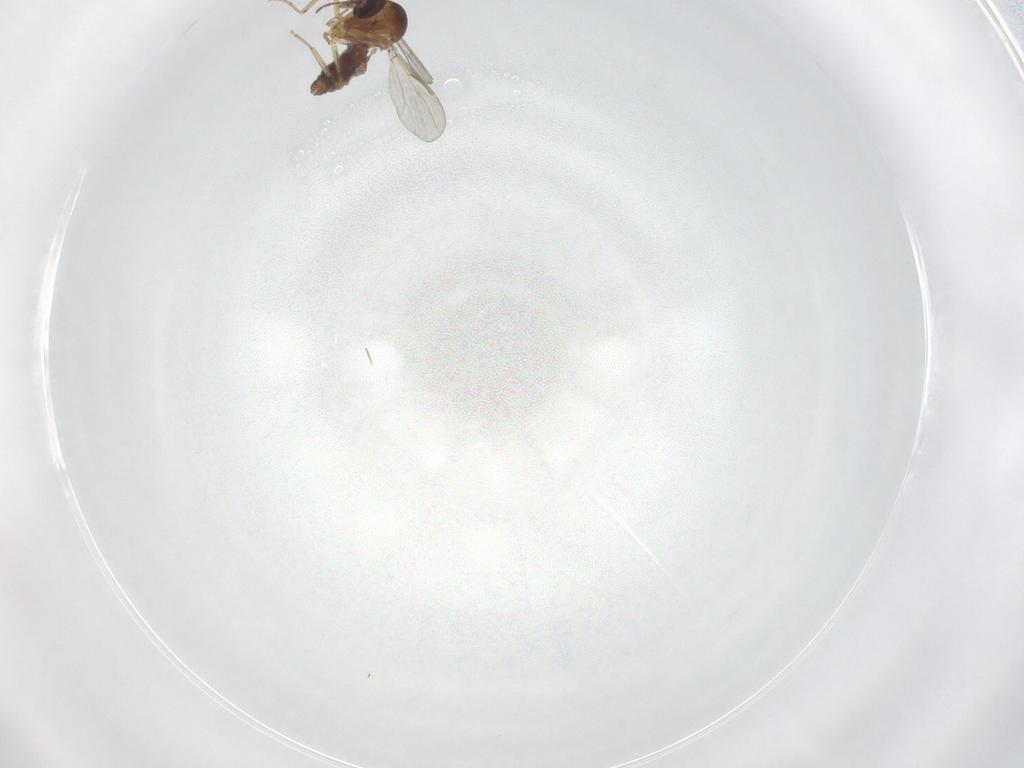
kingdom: Animalia
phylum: Arthropoda
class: Insecta
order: Diptera
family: Ceratopogonidae
